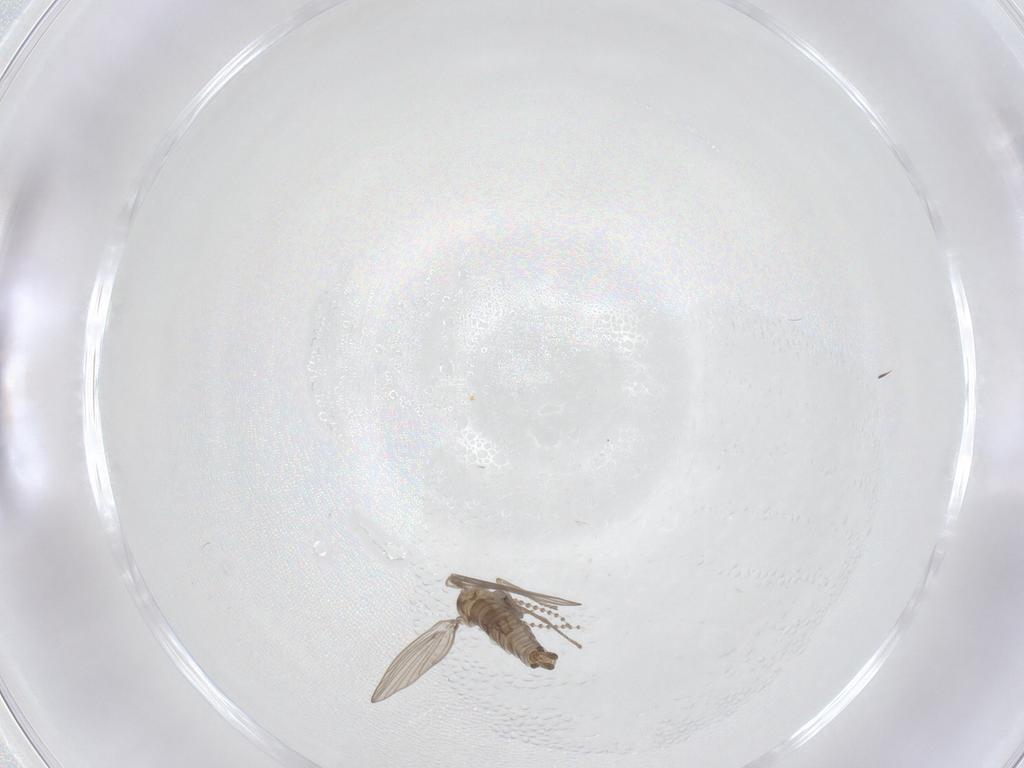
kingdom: Animalia
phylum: Arthropoda
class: Insecta
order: Diptera
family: Psychodidae
